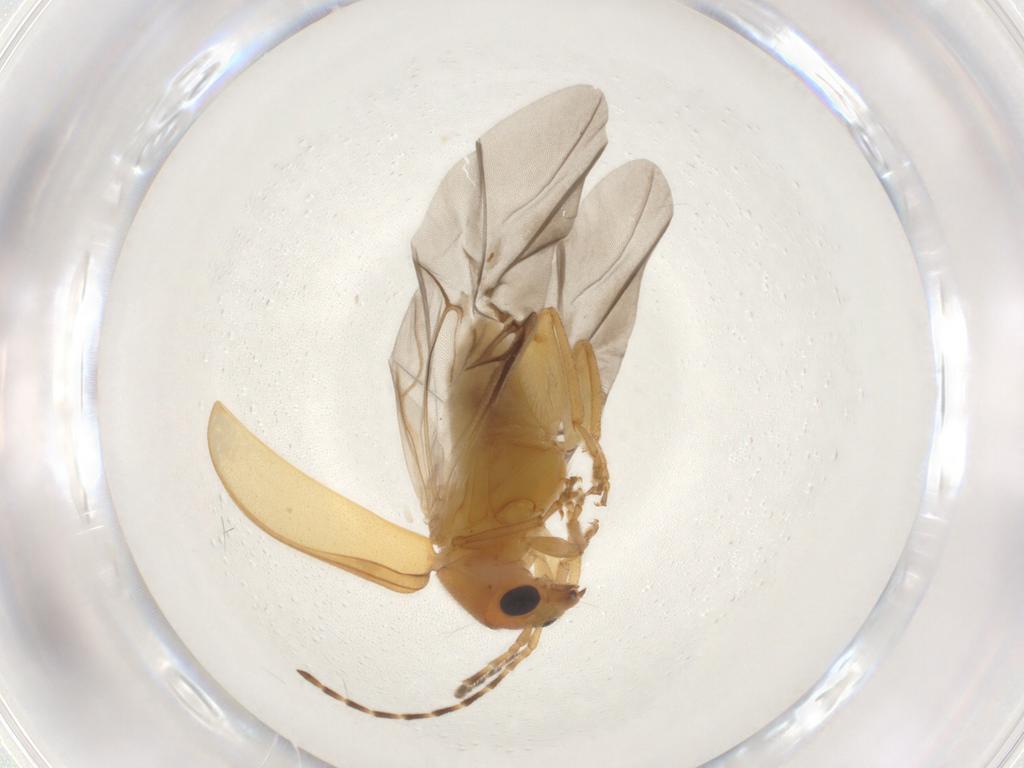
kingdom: Animalia
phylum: Arthropoda
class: Insecta
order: Coleoptera
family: Chrysomelidae
